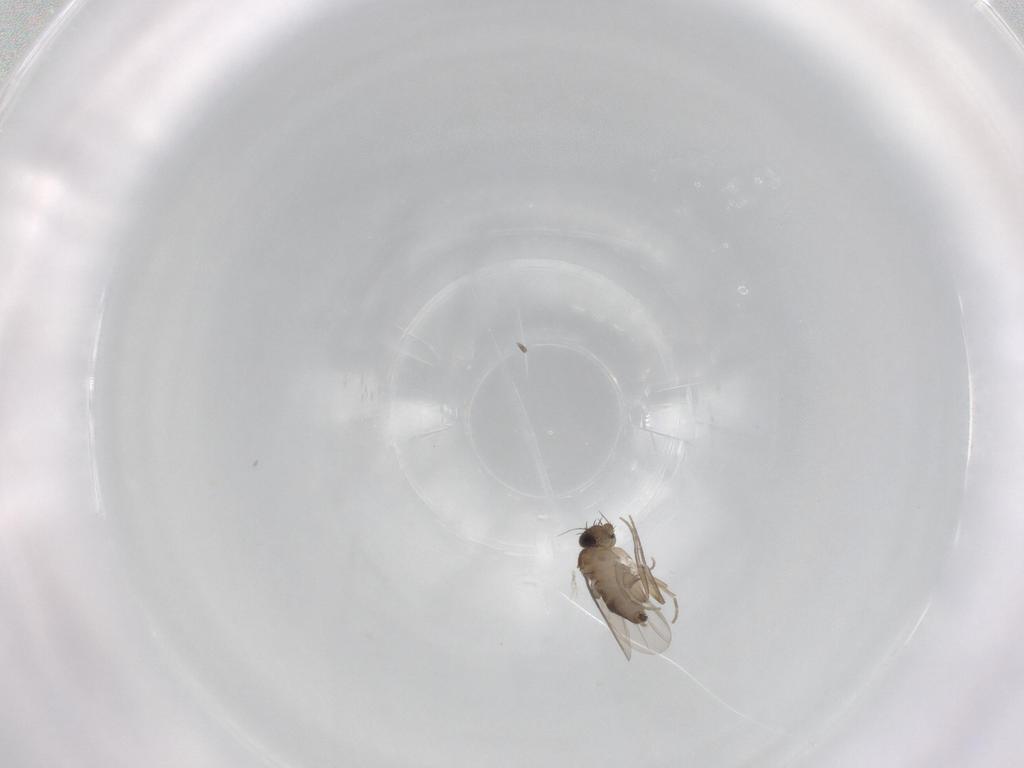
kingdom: Animalia
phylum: Arthropoda
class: Insecta
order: Diptera
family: Phoridae
